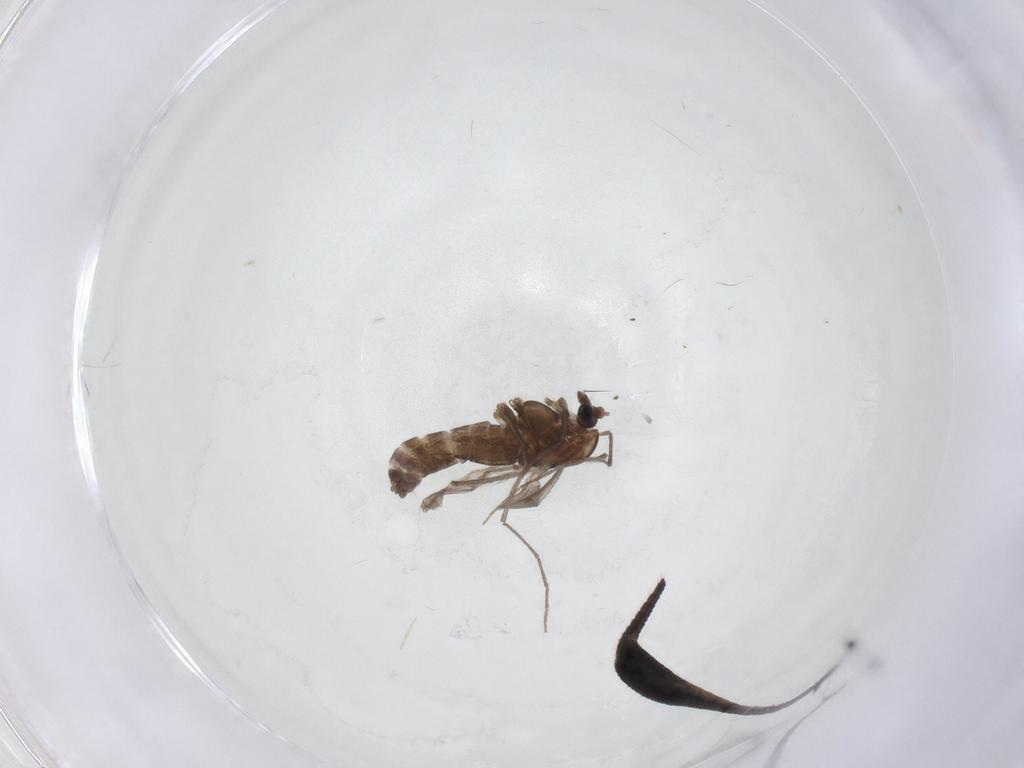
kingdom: Animalia
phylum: Arthropoda
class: Insecta
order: Diptera
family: Chironomidae
